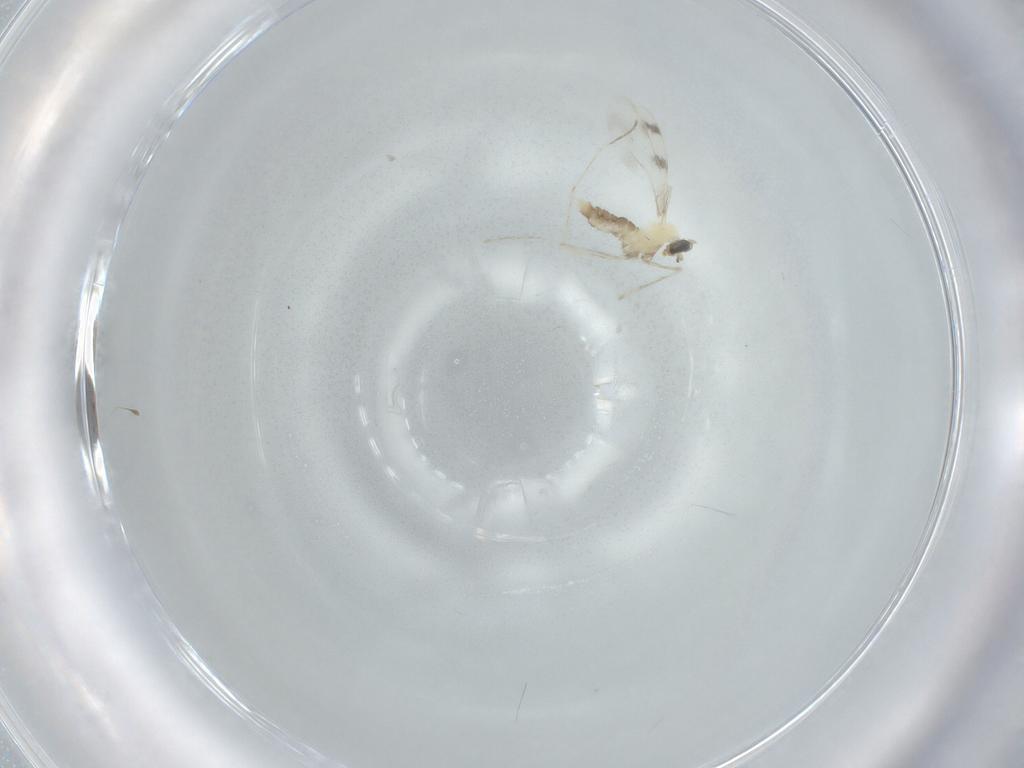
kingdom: Animalia
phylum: Arthropoda
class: Insecta
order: Diptera
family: Cecidomyiidae
